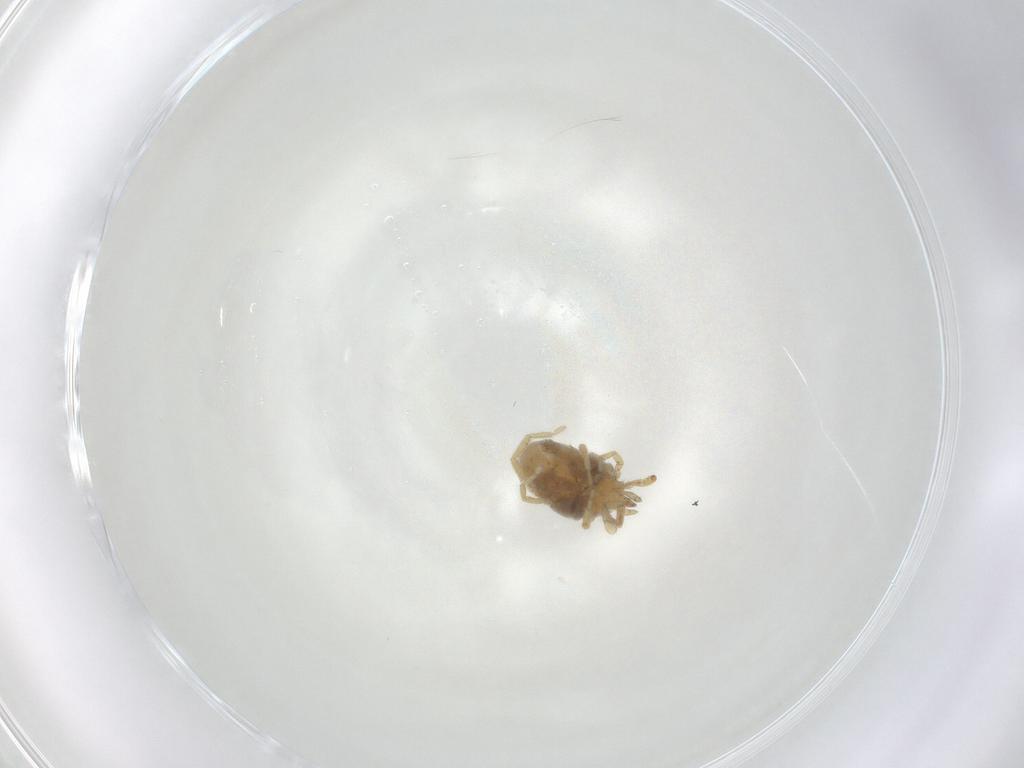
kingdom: Animalia
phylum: Arthropoda
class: Arachnida
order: Trombidiformes
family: Erythraeidae
